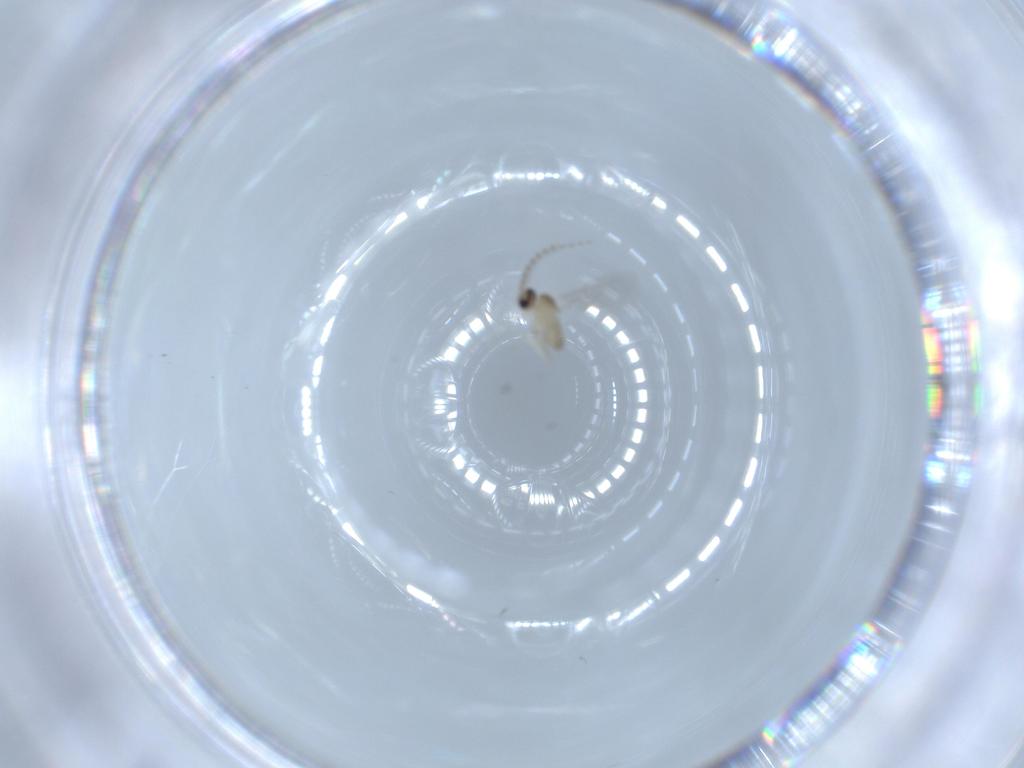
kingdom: Animalia
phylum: Arthropoda
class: Insecta
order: Diptera
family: Cecidomyiidae
